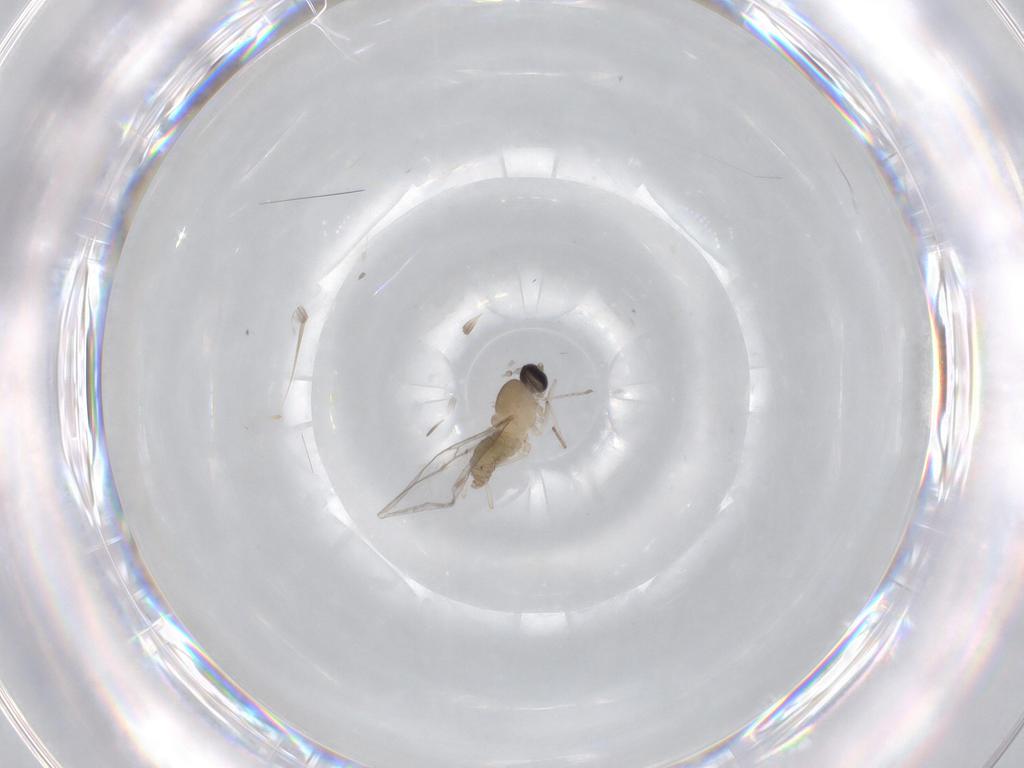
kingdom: Animalia
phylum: Arthropoda
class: Insecta
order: Diptera
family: Cecidomyiidae
